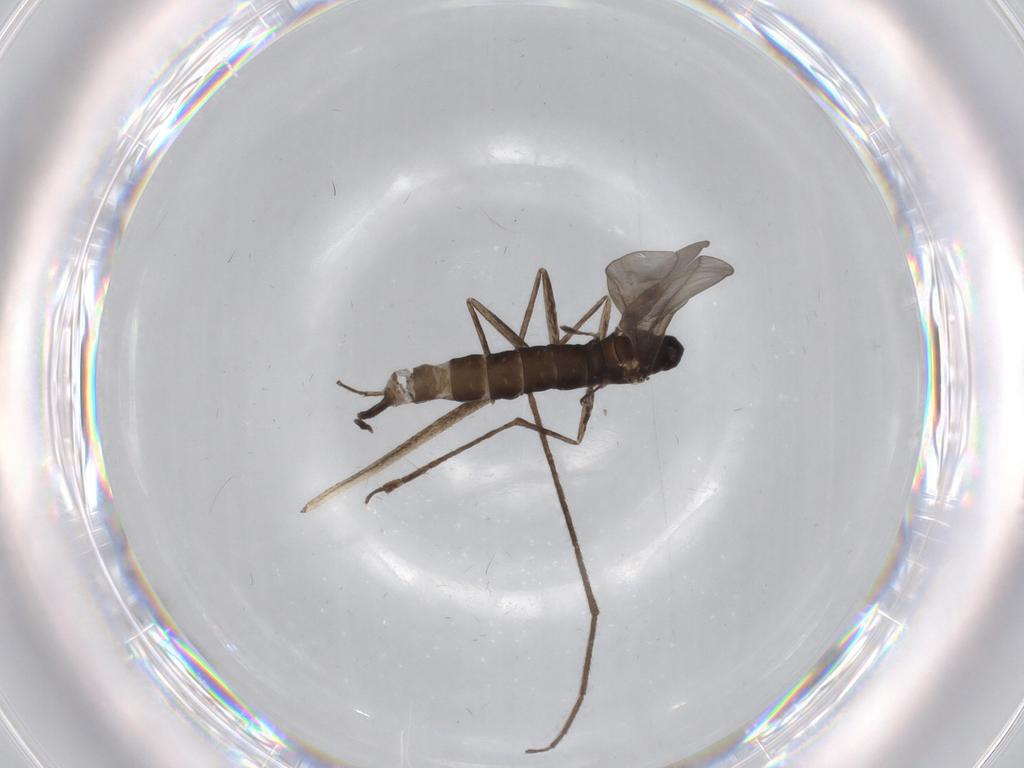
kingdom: Animalia
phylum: Arthropoda
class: Insecta
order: Diptera
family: Cecidomyiidae
